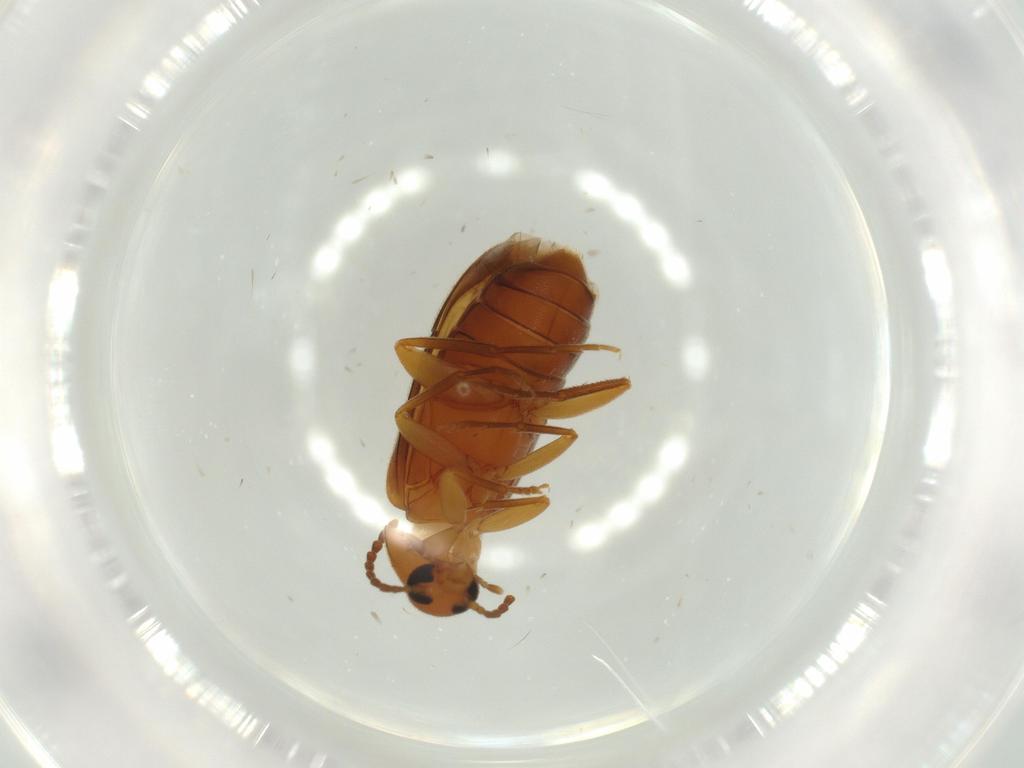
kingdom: Animalia
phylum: Arthropoda
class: Insecta
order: Coleoptera
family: Scraptiidae
